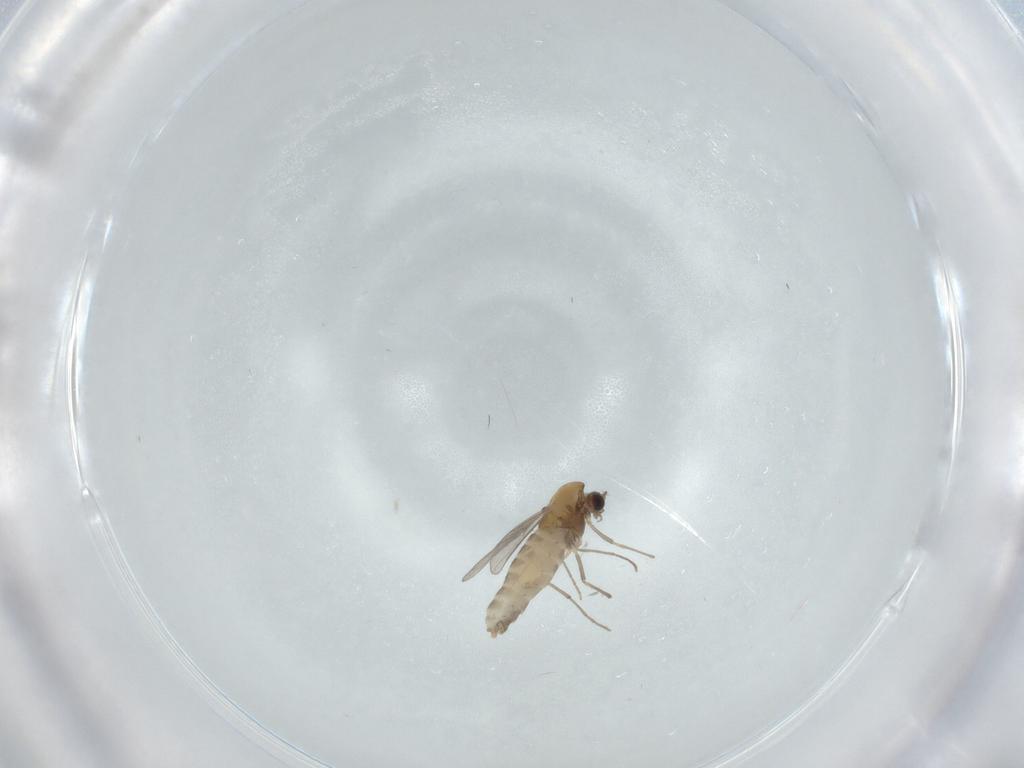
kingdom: Animalia
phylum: Arthropoda
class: Insecta
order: Diptera
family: Chironomidae
